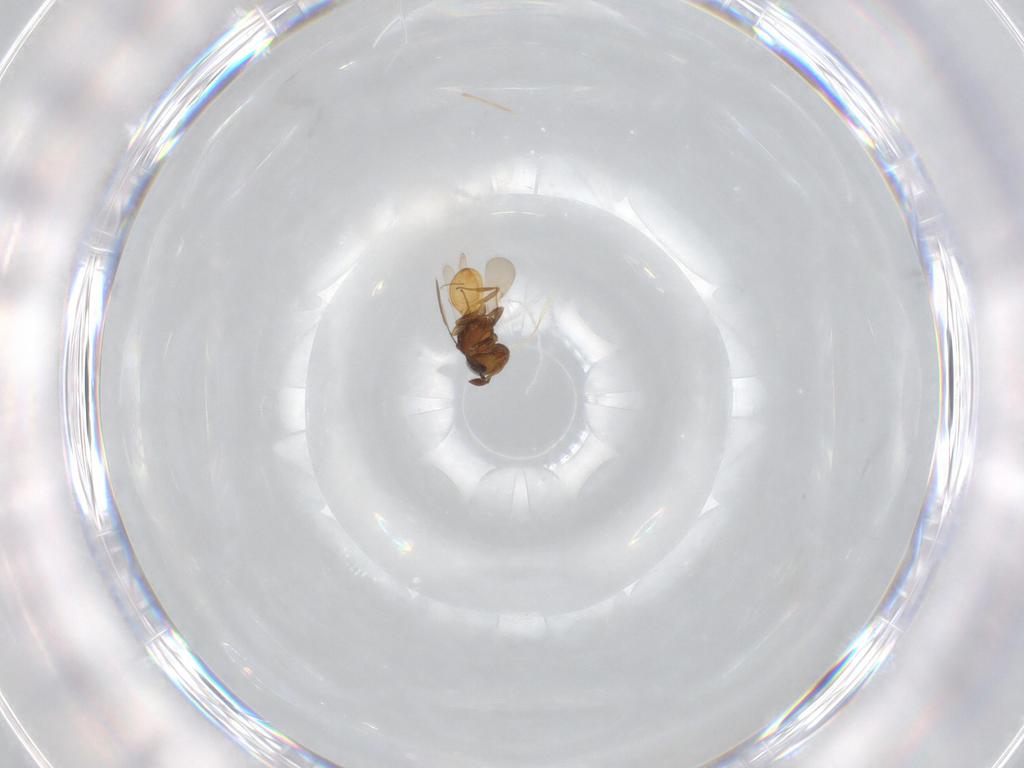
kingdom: Animalia
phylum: Arthropoda
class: Insecta
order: Hymenoptera
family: Scelionidae
